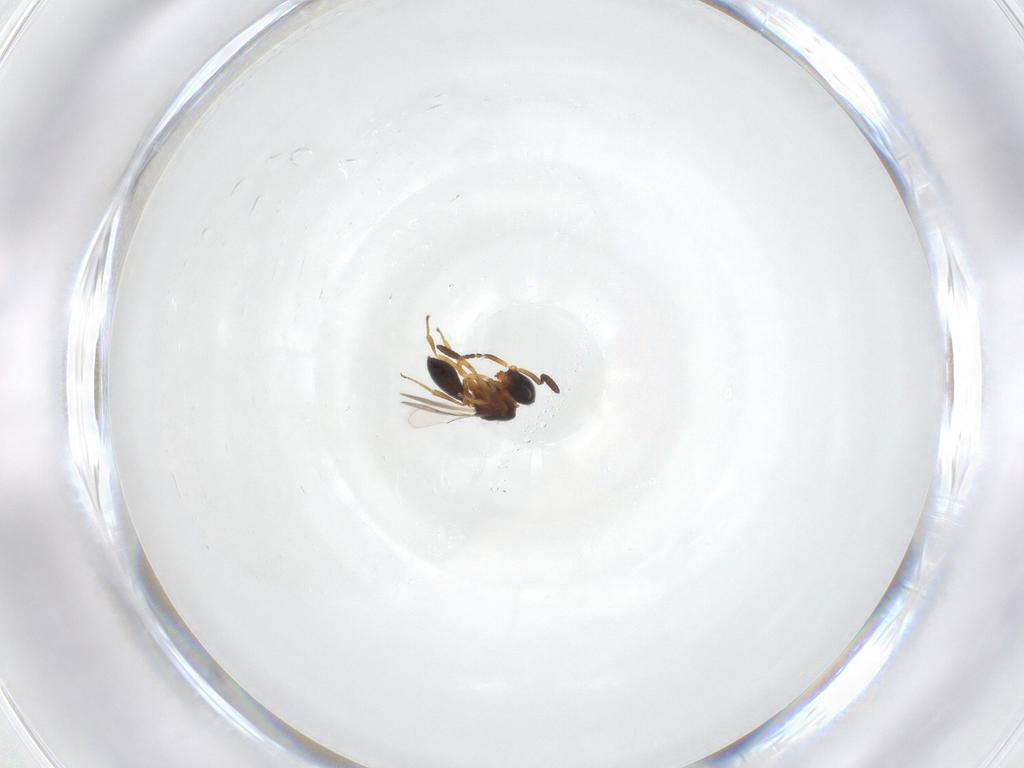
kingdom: Animalia
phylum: Arthropoda
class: Insecta
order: Hymenoptera
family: Scelionidae
